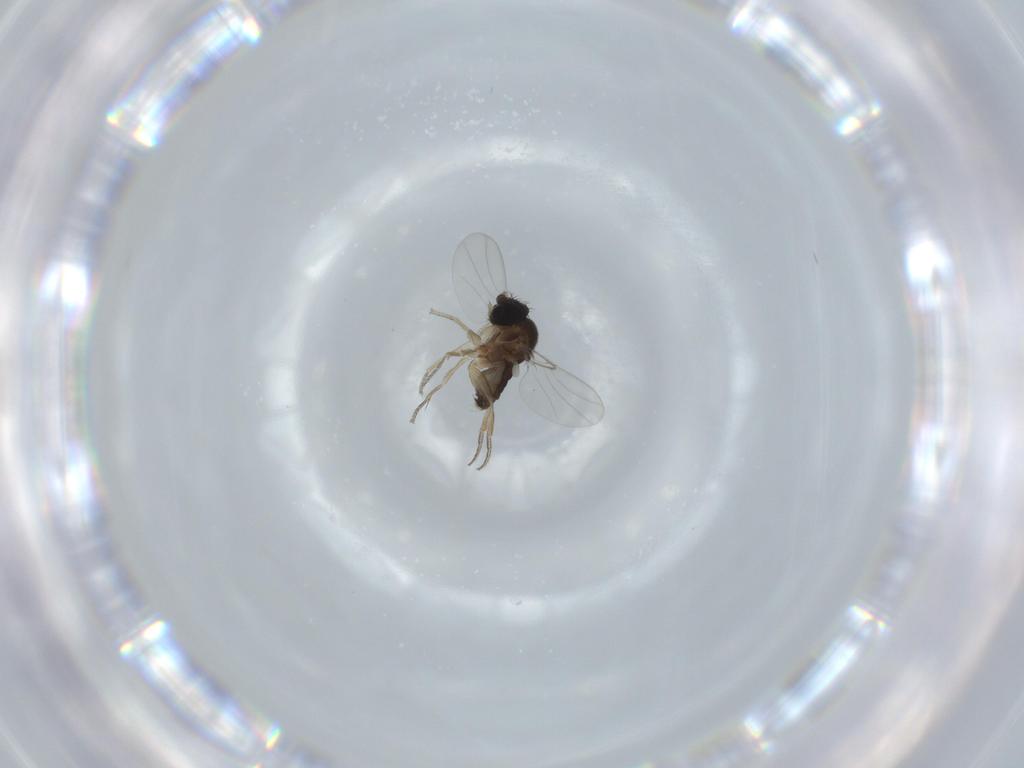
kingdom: Animalia
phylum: Arthropoda
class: Insecta
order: Diptera
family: Phoridae
